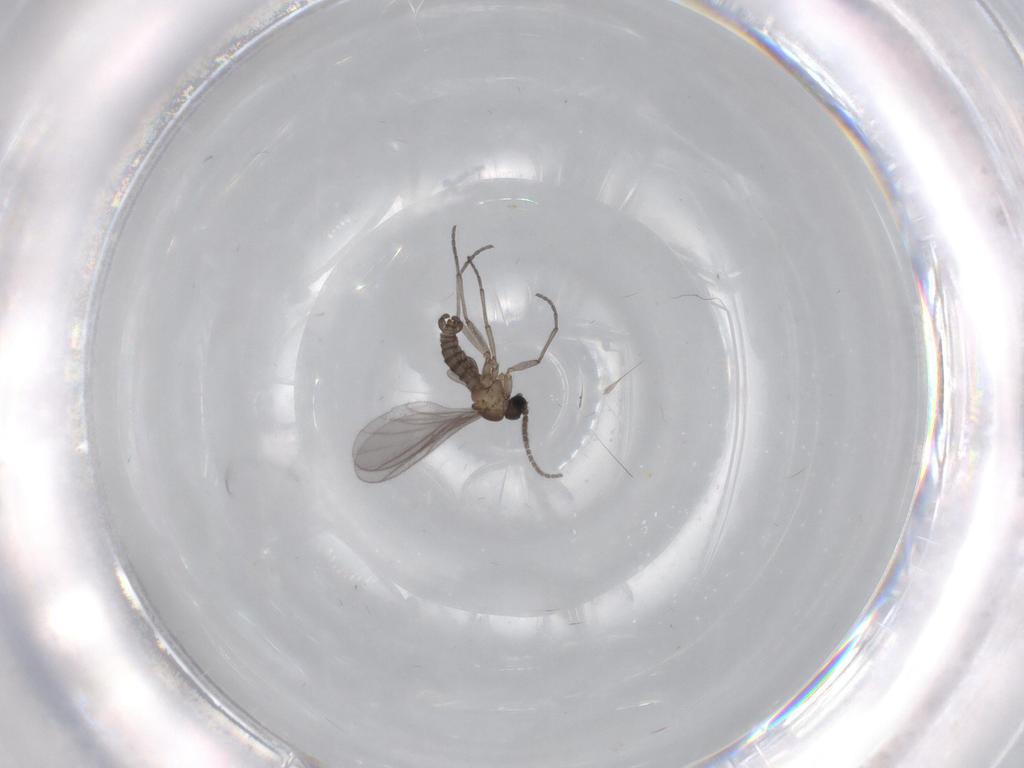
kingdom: Animalia
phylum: Arthropoda
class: Insecta
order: Diptera
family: Sciaridae
